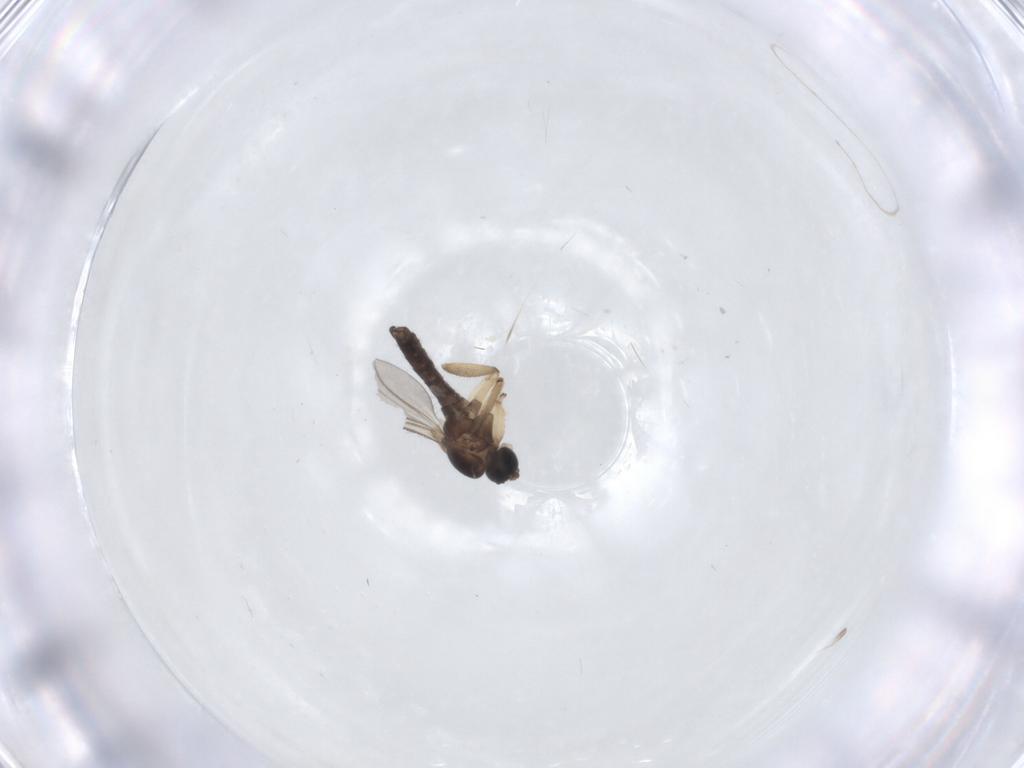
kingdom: Animalia
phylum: Arthropoda
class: Insecta
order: Diptera
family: Sciaridae
